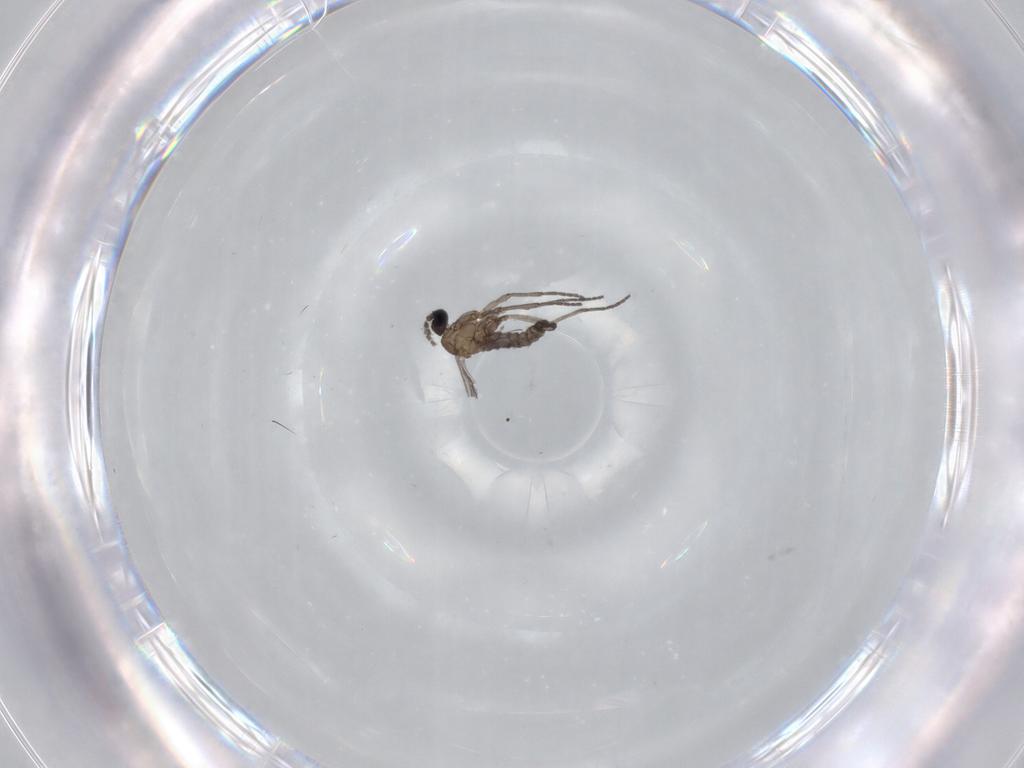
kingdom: Animalia
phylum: Arthropoda
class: Insecta
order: Diptera
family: Sciaridae
